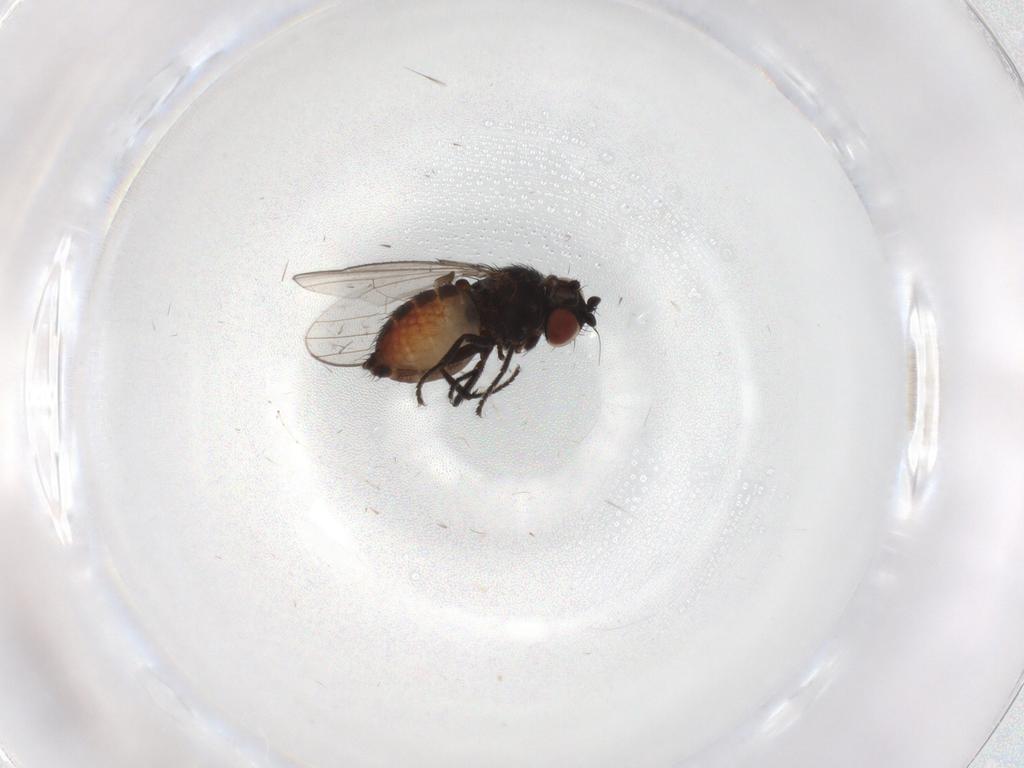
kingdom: Animalia
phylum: Arthropoda
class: Insecta
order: Diptera
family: Milichiidae
